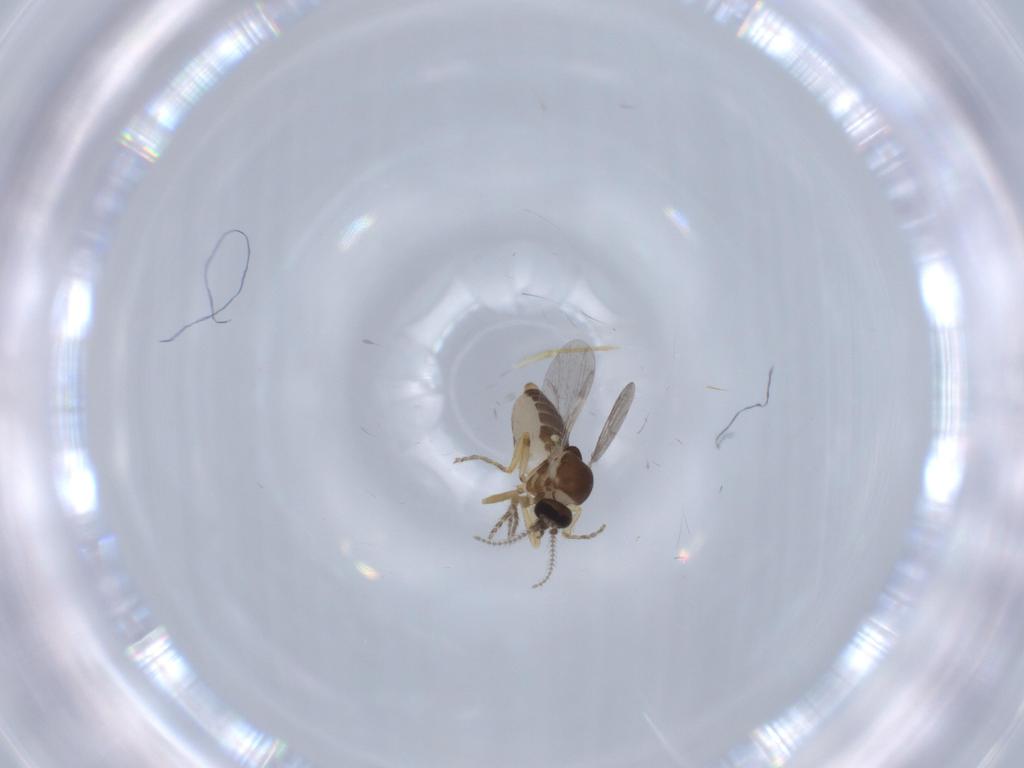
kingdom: Animalia
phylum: Arthropoda
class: Insecta
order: Diptera
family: Ceratopogonidae
